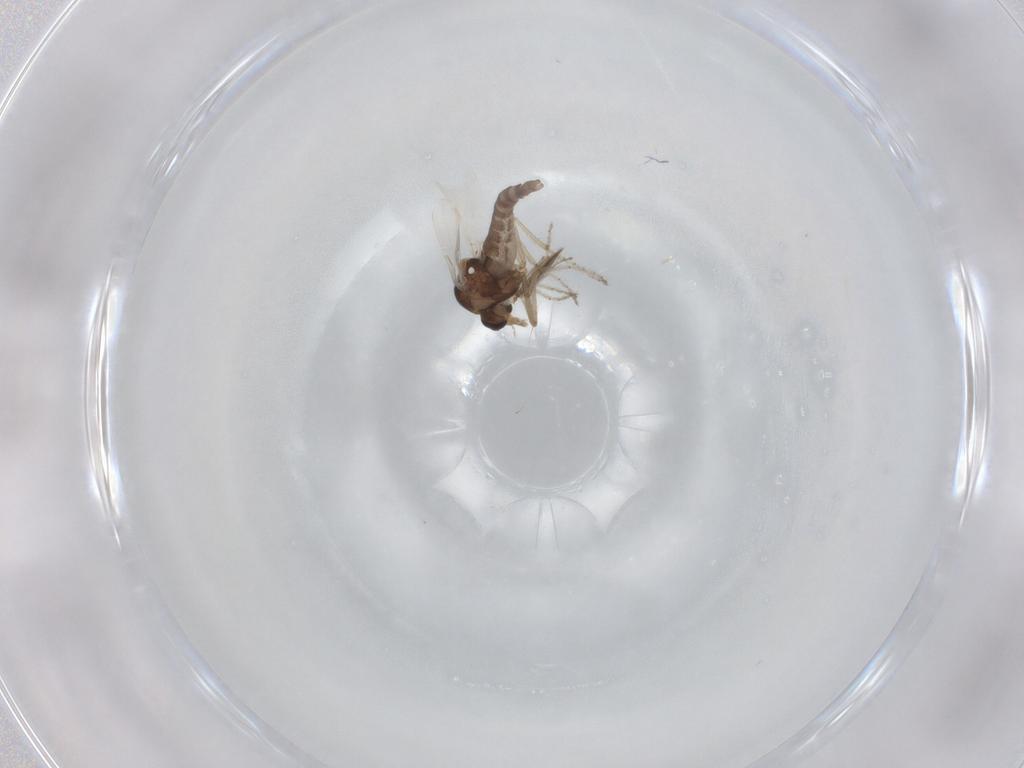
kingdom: Animalia
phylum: Arthropoda
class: Insecta
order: Diptera
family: Ceratopogonidae
